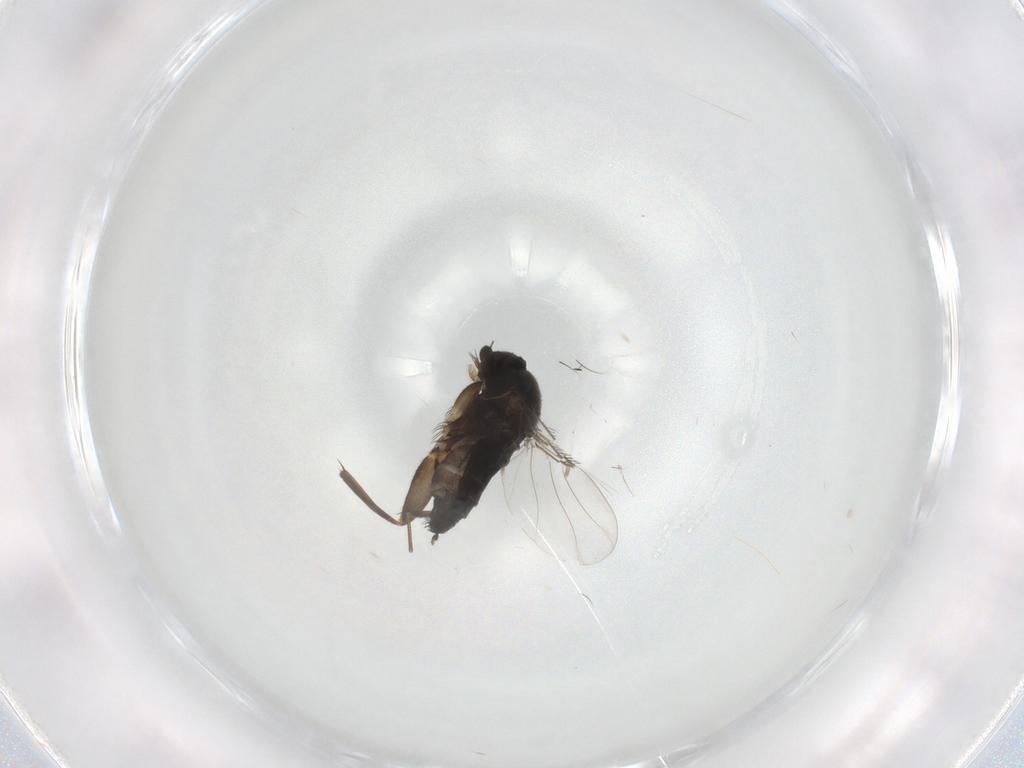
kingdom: Animalia
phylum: Arthropoda
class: Insecta
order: Diptera
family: Phoridae
